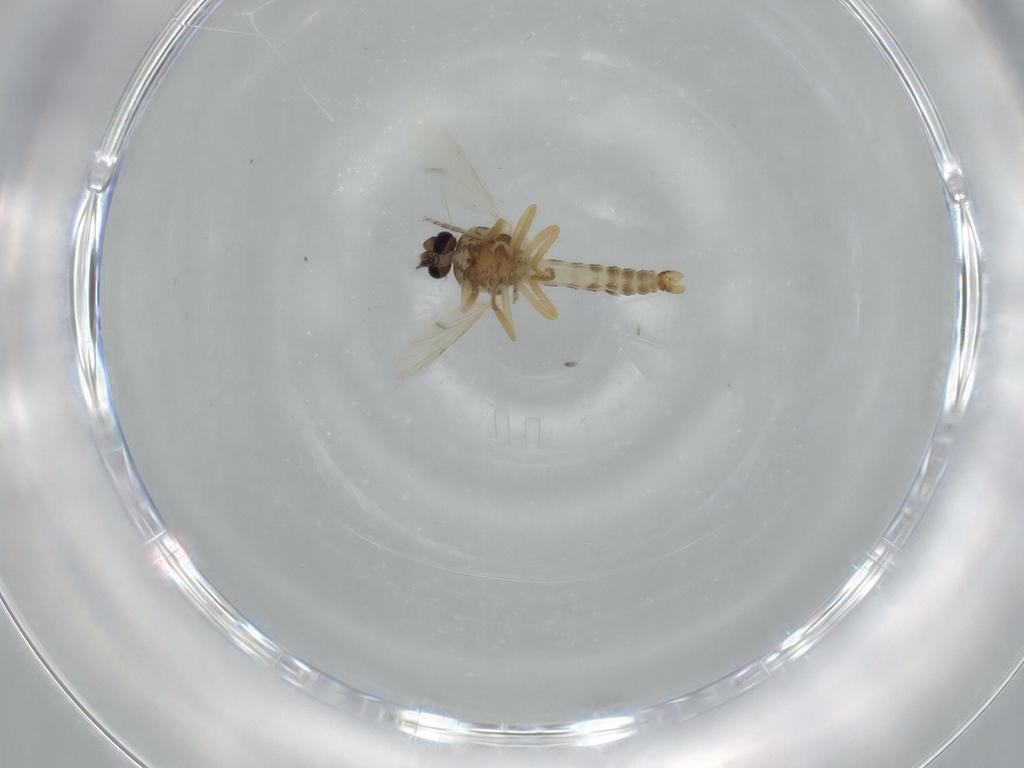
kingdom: Animalia
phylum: Arthropoda
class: Insecta
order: Diptera
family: Ceratopogonidae
